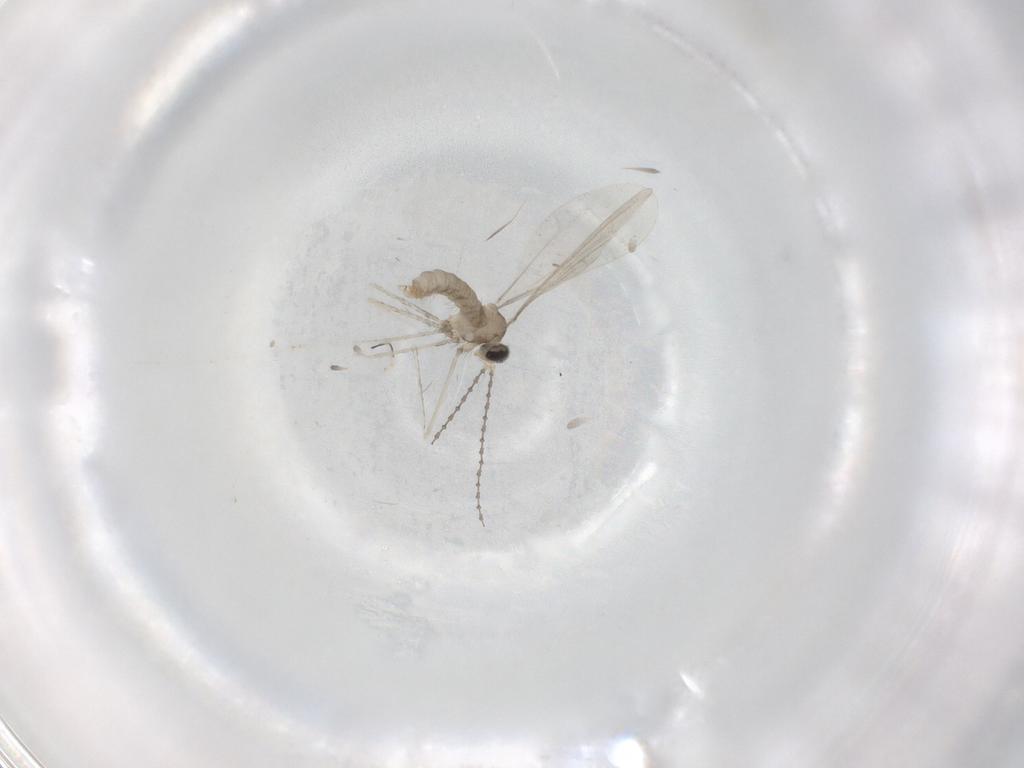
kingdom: Animalia
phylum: Arthropoda
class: Insecta
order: Diptera
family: Cecidomyiidae
